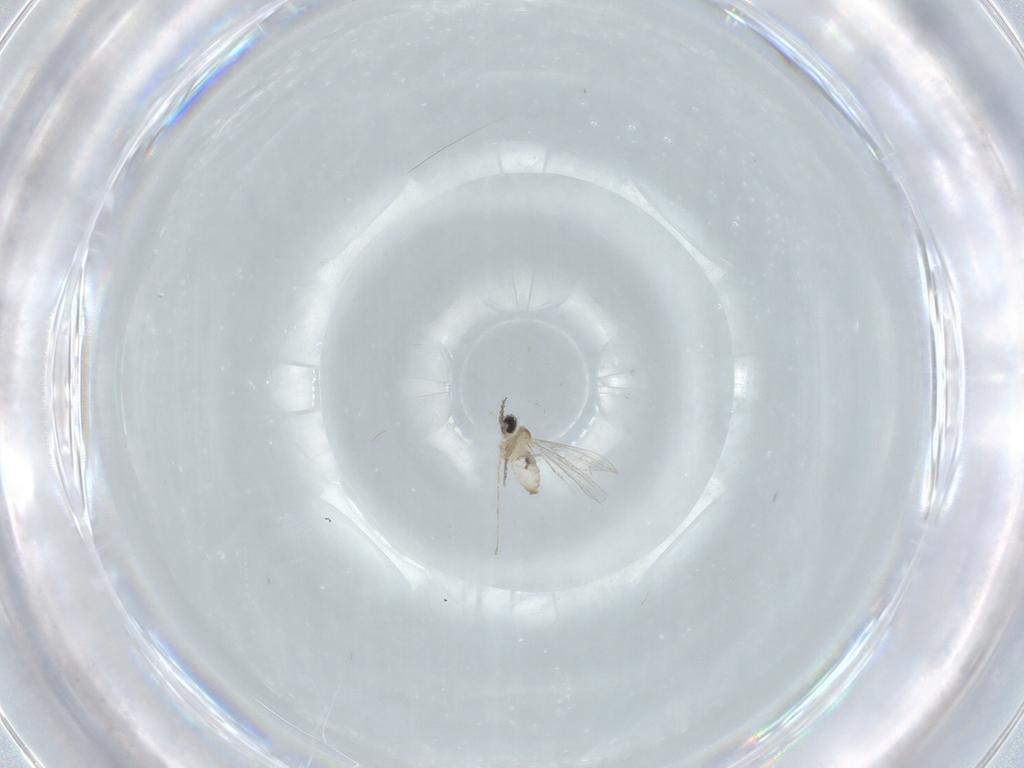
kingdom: Animalia
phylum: Arthropoda
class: Insecta
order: Diptera
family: Cecidomyiidae
